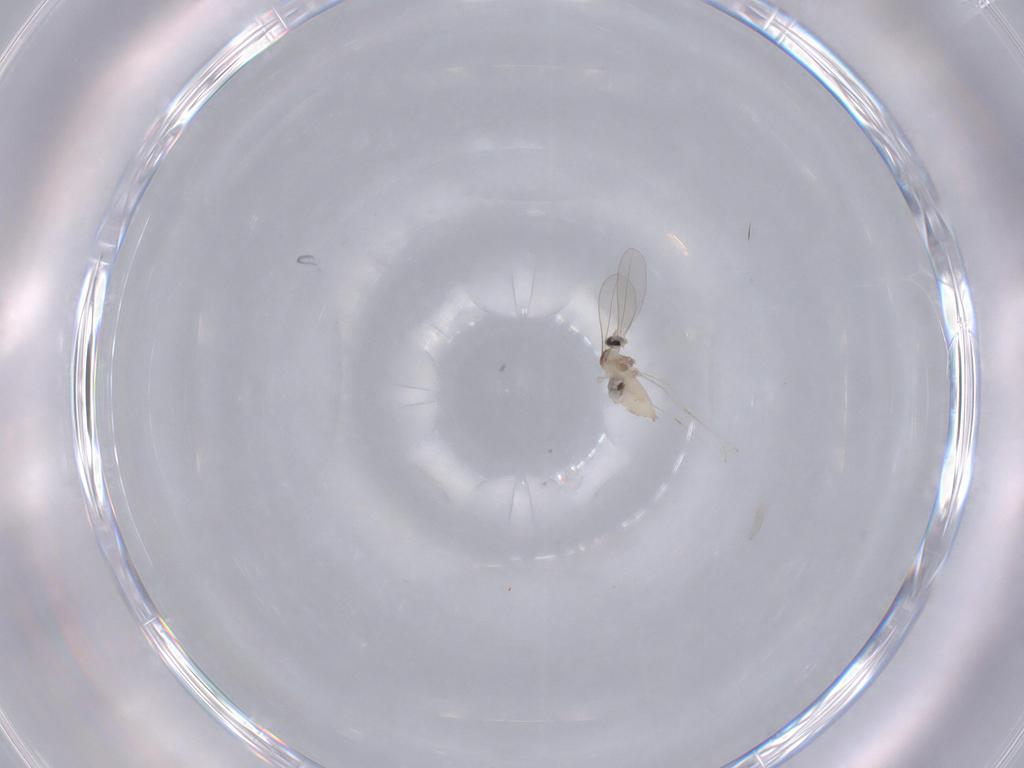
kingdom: Animalia
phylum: Arthropoda
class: Insecta
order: Diptera
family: Cecidomyiidae
